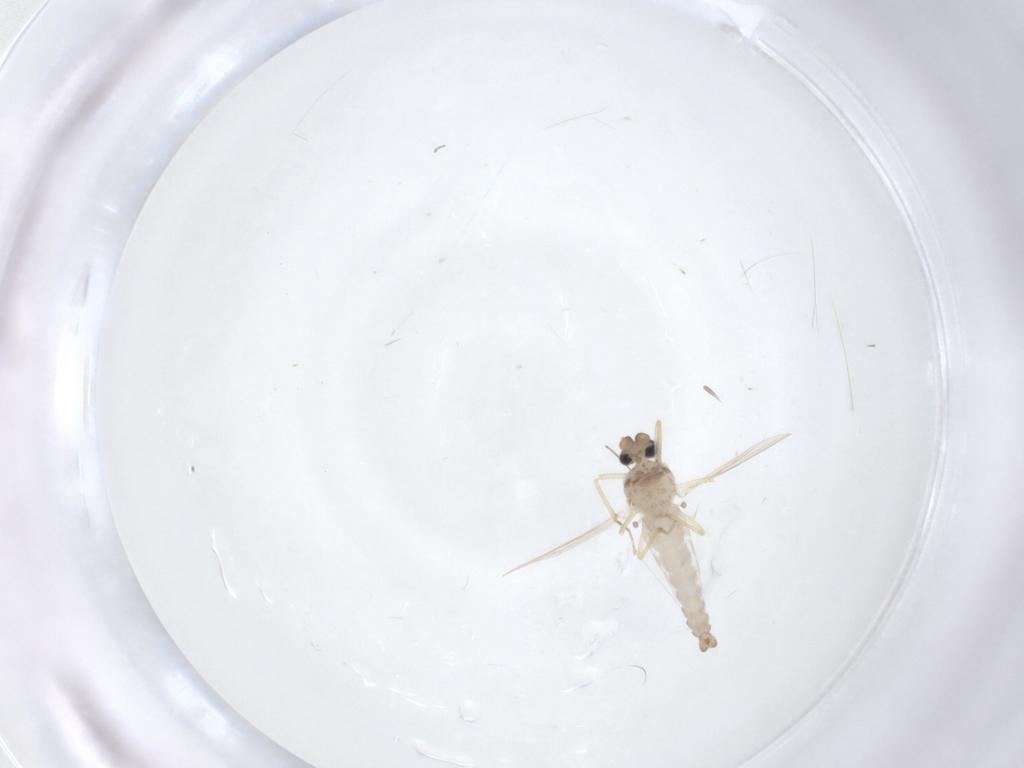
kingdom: Animalia
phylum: Arthropoda
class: Insecta
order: Diptera
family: Ceratopogonidae
